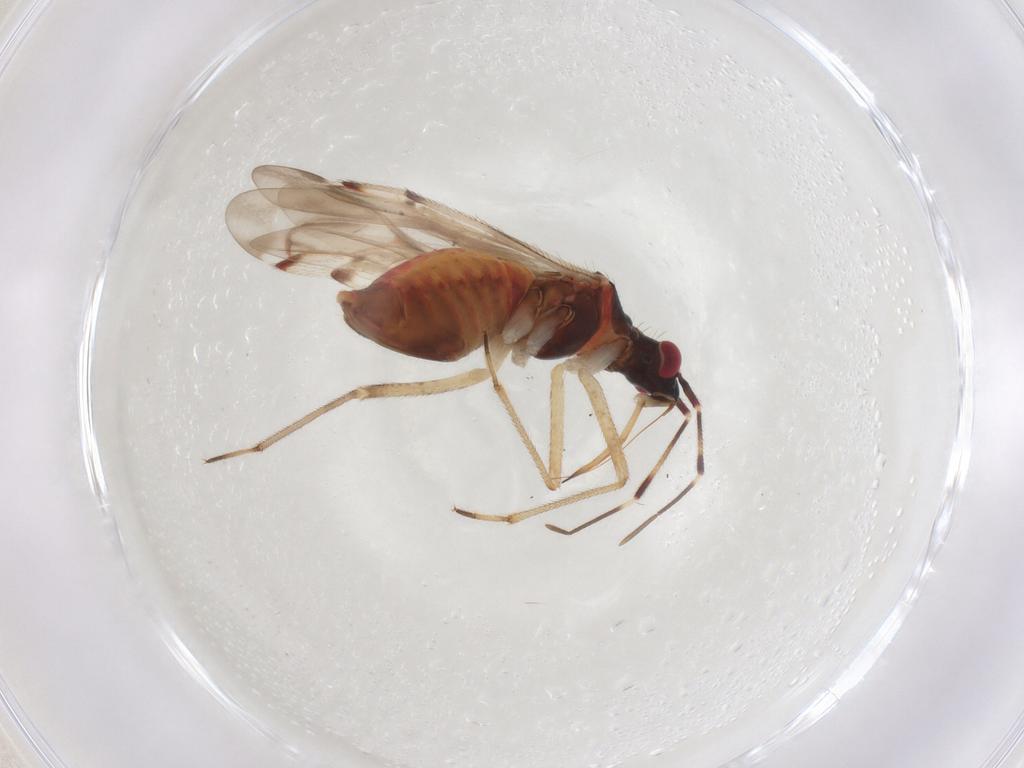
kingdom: Animalia
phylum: Arthropoda
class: Insecta
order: Hemiptera
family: Miridae
